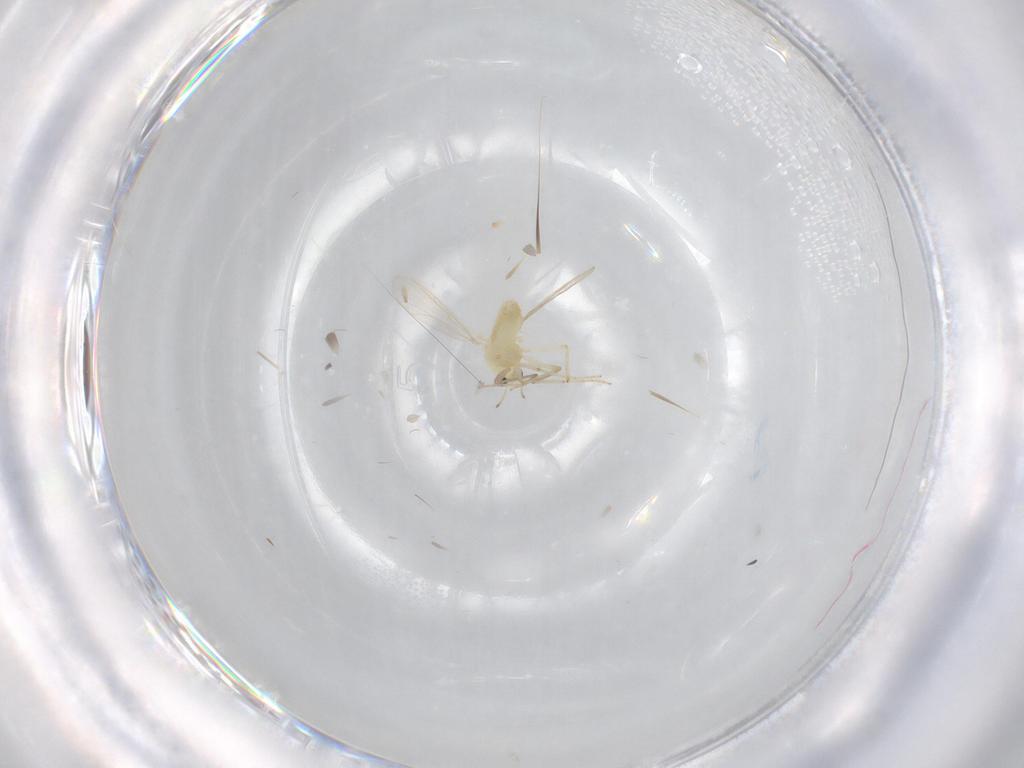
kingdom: Animalia
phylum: Arthropoda
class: Insecta
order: Diptera
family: Chironomidae
